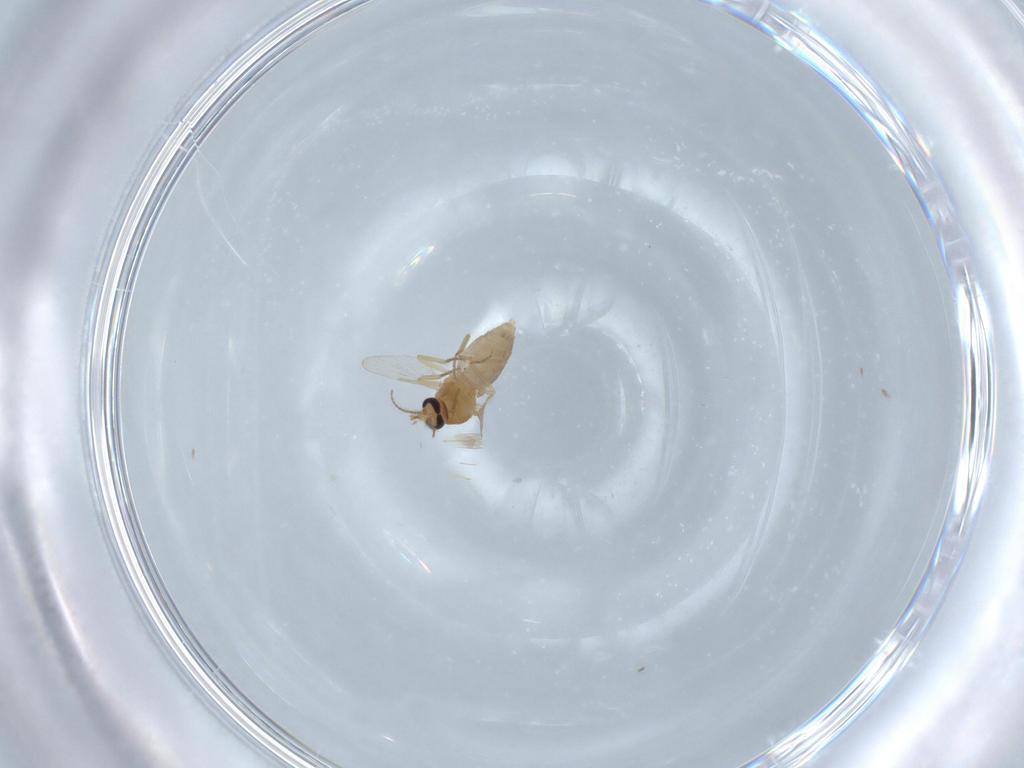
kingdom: Animalia
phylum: Arthropoda
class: Insecta
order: Diptera
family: Ceratopogonidae
